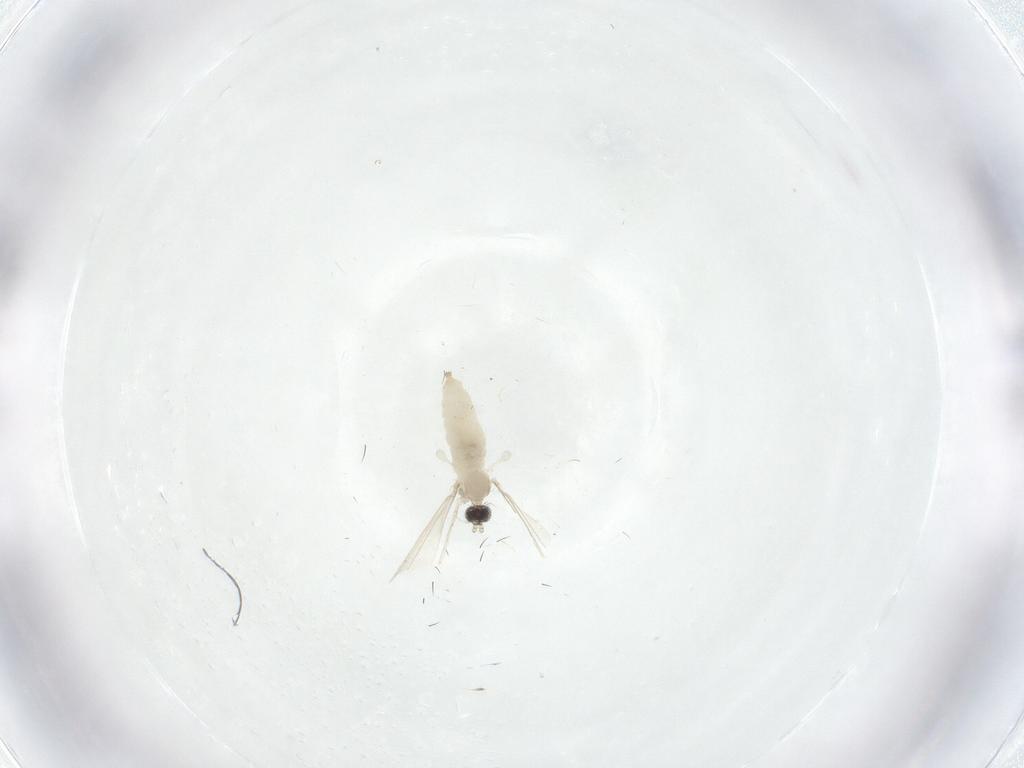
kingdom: Animalia
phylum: Arthropoda
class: Insecta
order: Diptera
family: Cecidomyiidae
